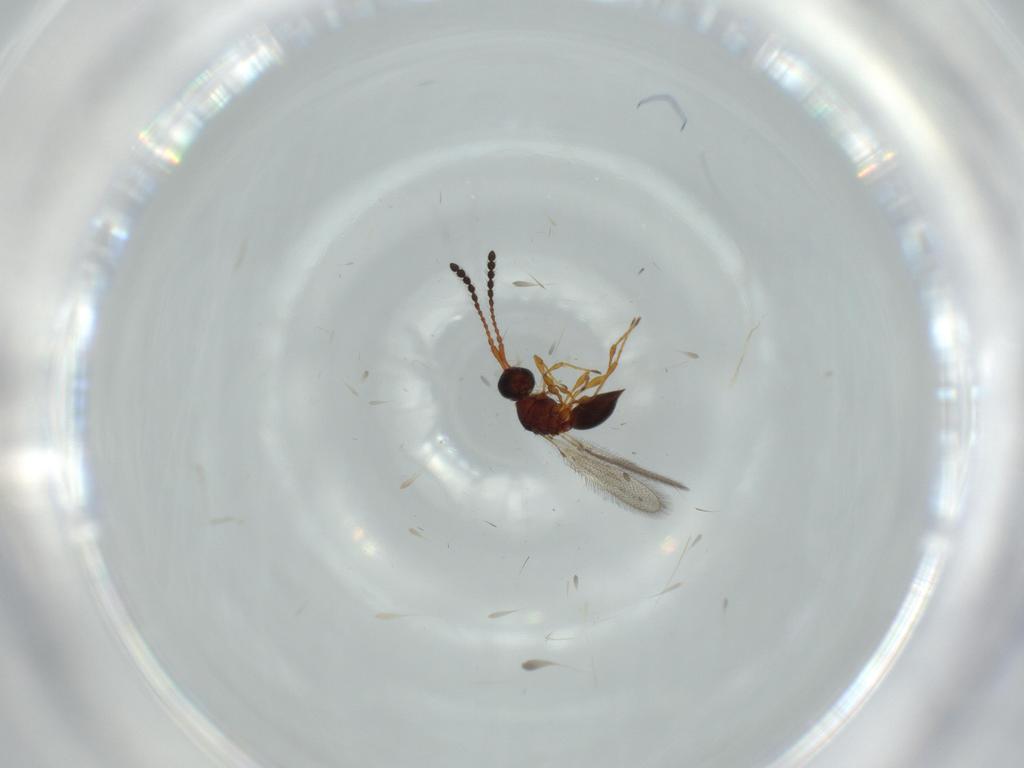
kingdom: Animalia
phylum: Arthropoda
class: Insecta
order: Hymenoptera
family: Diapriidae
